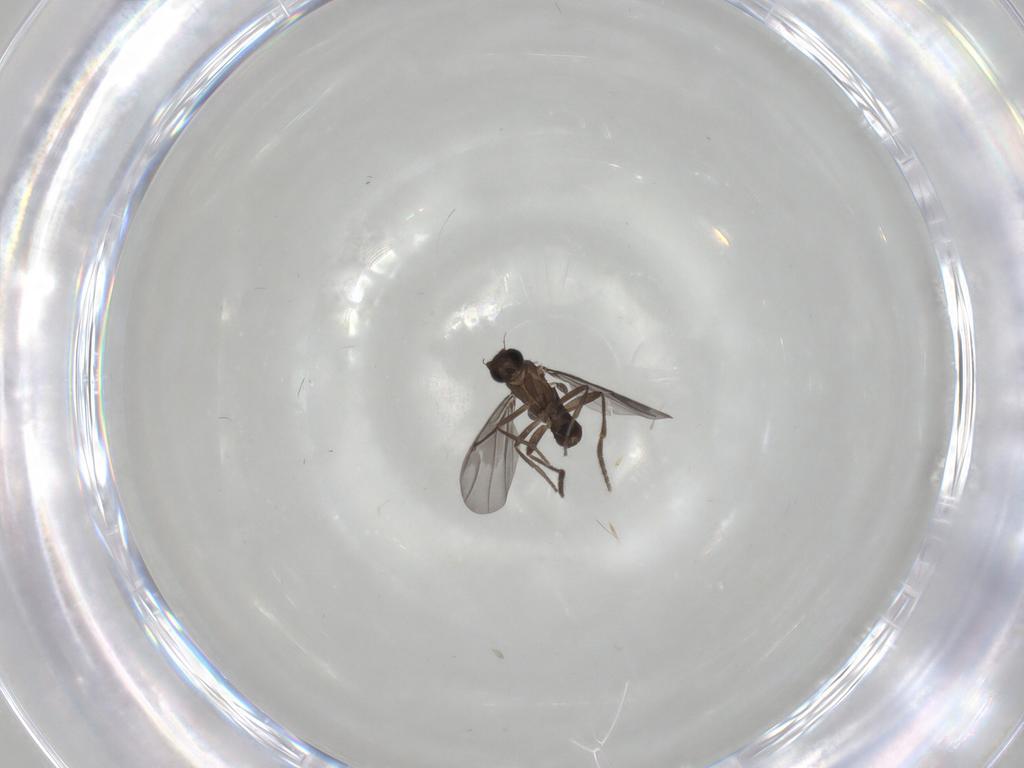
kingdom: Animalia
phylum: Arthropoda
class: Insecta
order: Diptera
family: Phoridae
